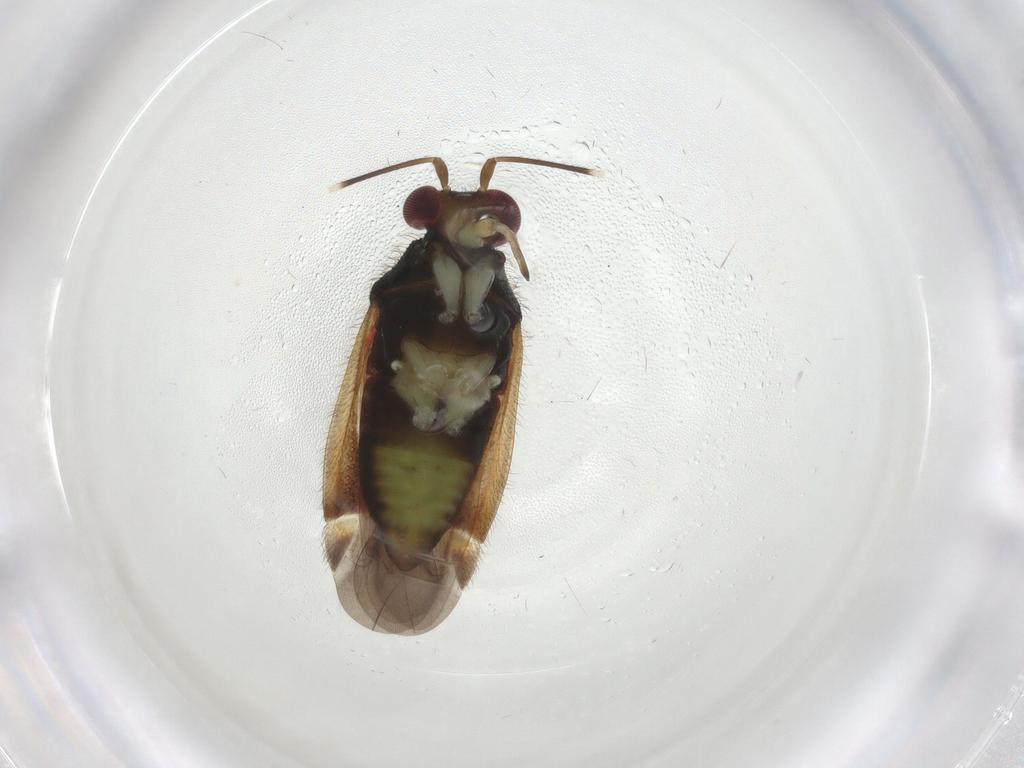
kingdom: Animalia
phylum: Arthropoda
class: Insecta
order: Hemiptera
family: Miridae
